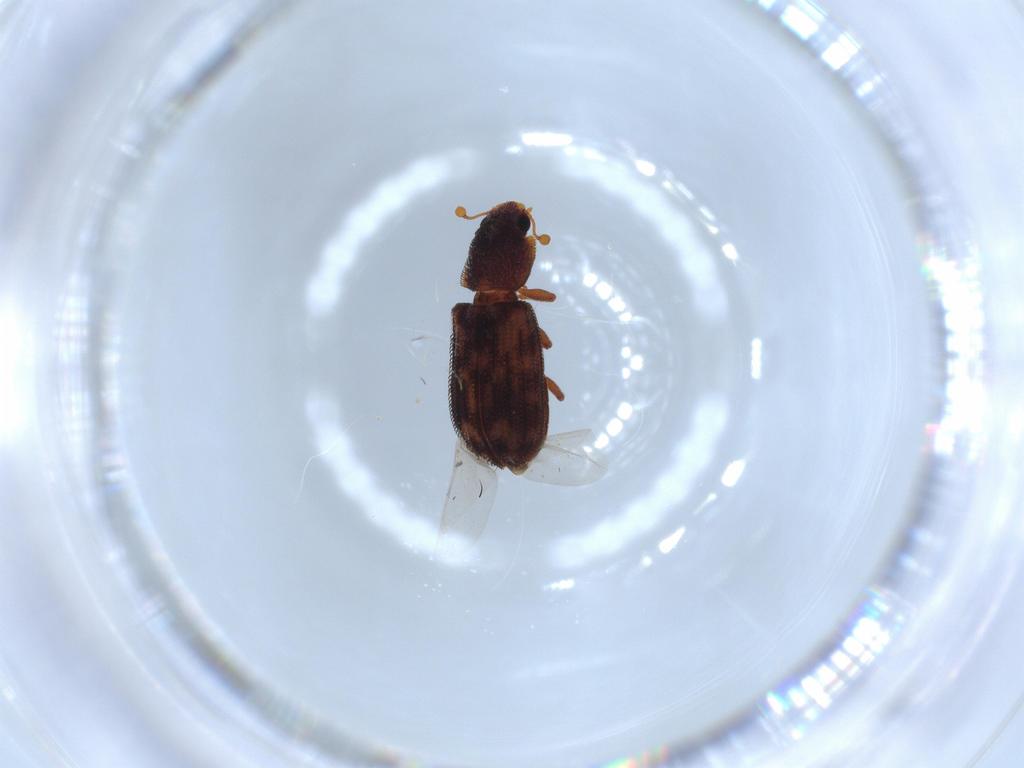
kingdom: Animalia
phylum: Arthropoda
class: Insecta
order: Coleoptera
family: Zopheridae
